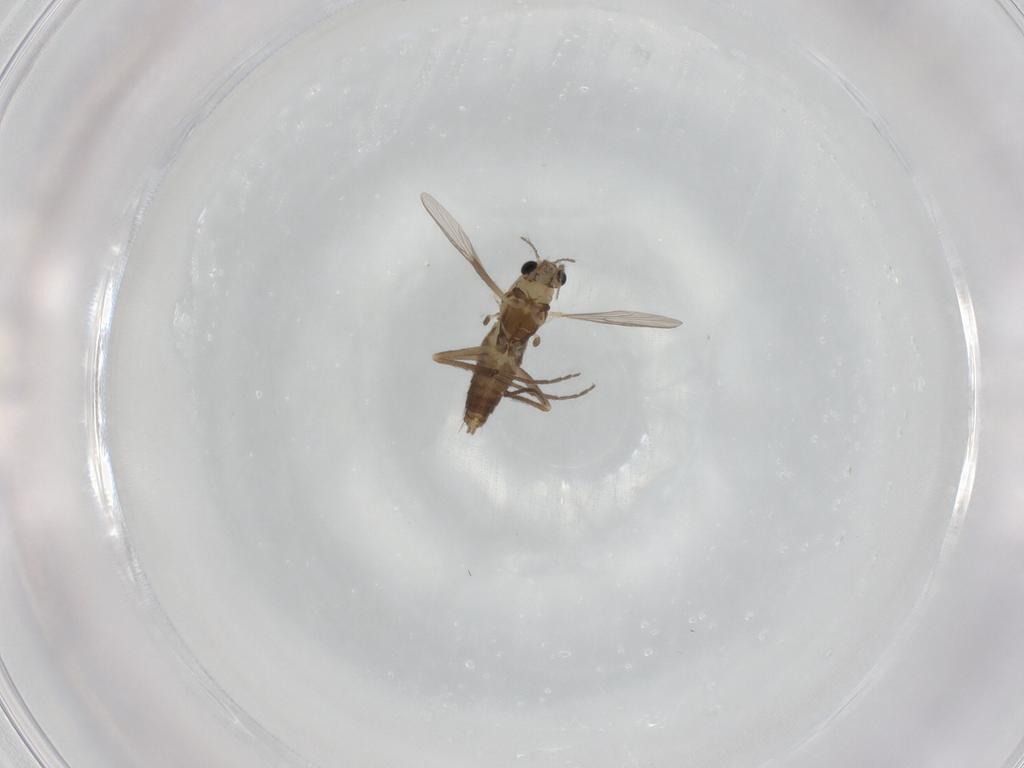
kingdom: Animalia
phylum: Arthropoda
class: Insecta
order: Diptera
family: Chironomidae
